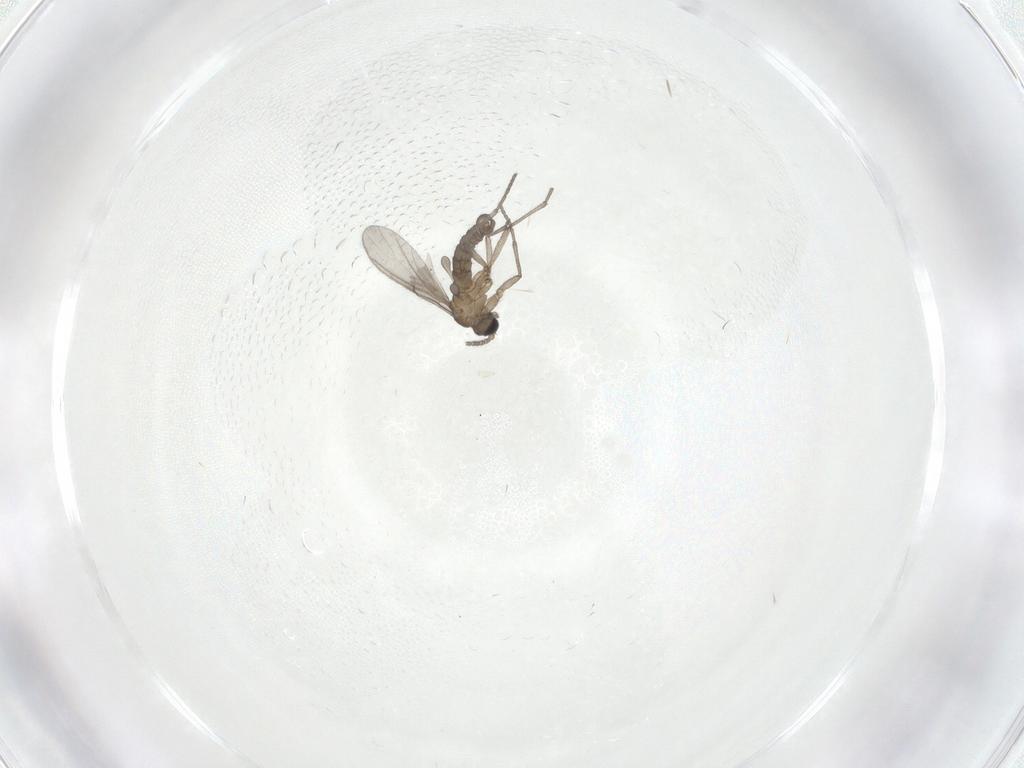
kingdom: Animalia
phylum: Arthropoda
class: Insecta
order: Diptera
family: Sciaridae
